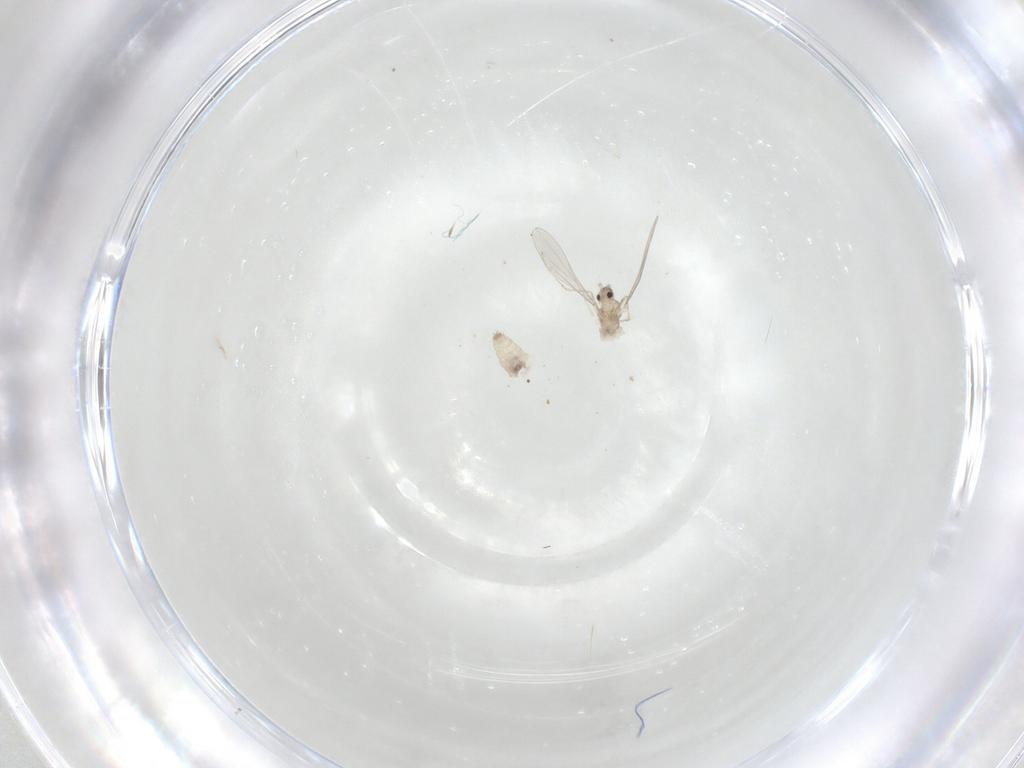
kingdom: Animalia
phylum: Arthropoda
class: Insecta
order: Diptera
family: Cecidomyiidae
